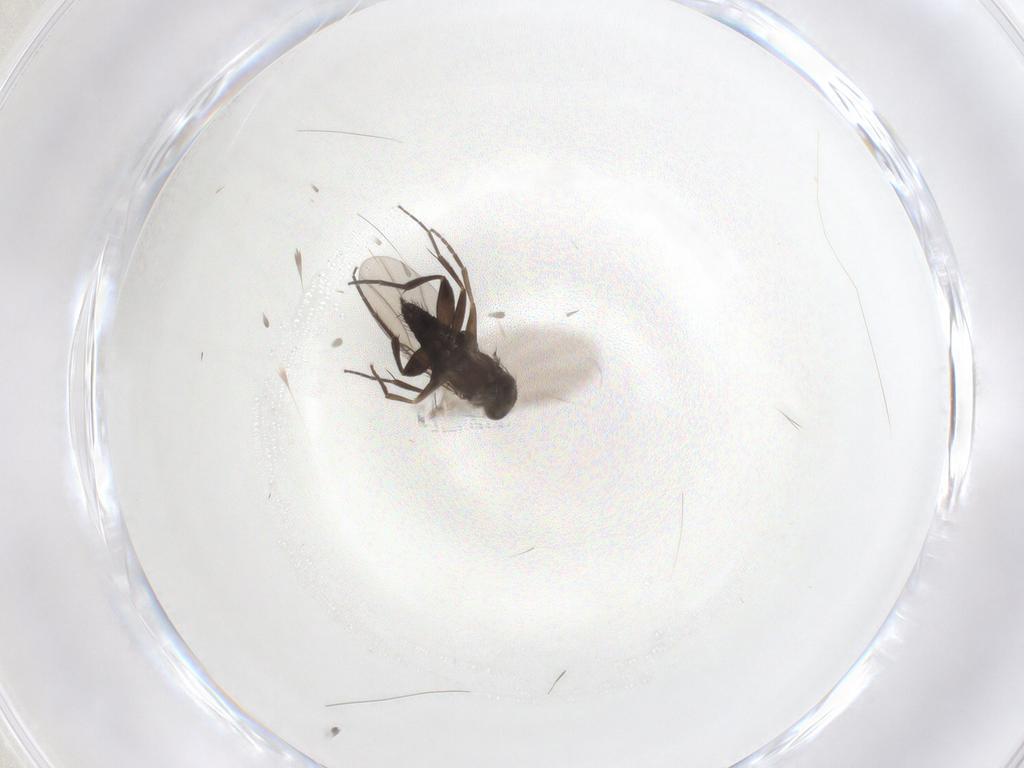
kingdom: Animalia
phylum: Arthropoda
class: Insecta
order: Diptera
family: Phoridae
